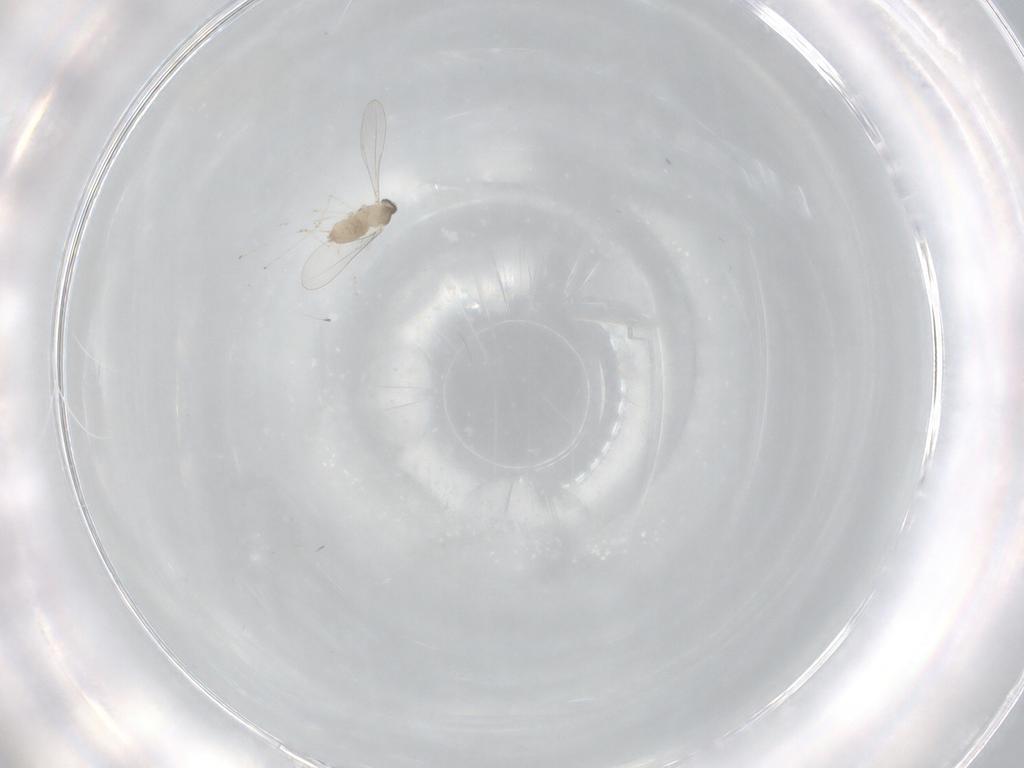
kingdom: Animalia
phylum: Arthropoda
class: Insecta
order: Diptera
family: Cecidomyiidae
